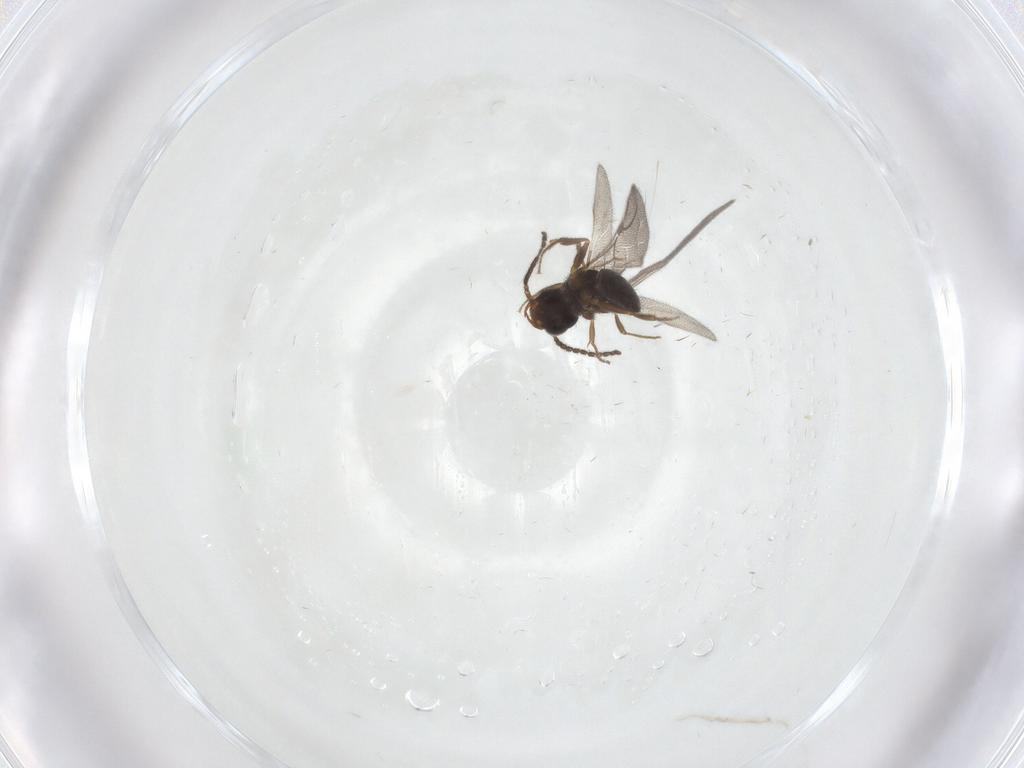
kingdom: Animalia
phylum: Arthropoda
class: Insecta
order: Hymenoptera
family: Bethylidae
